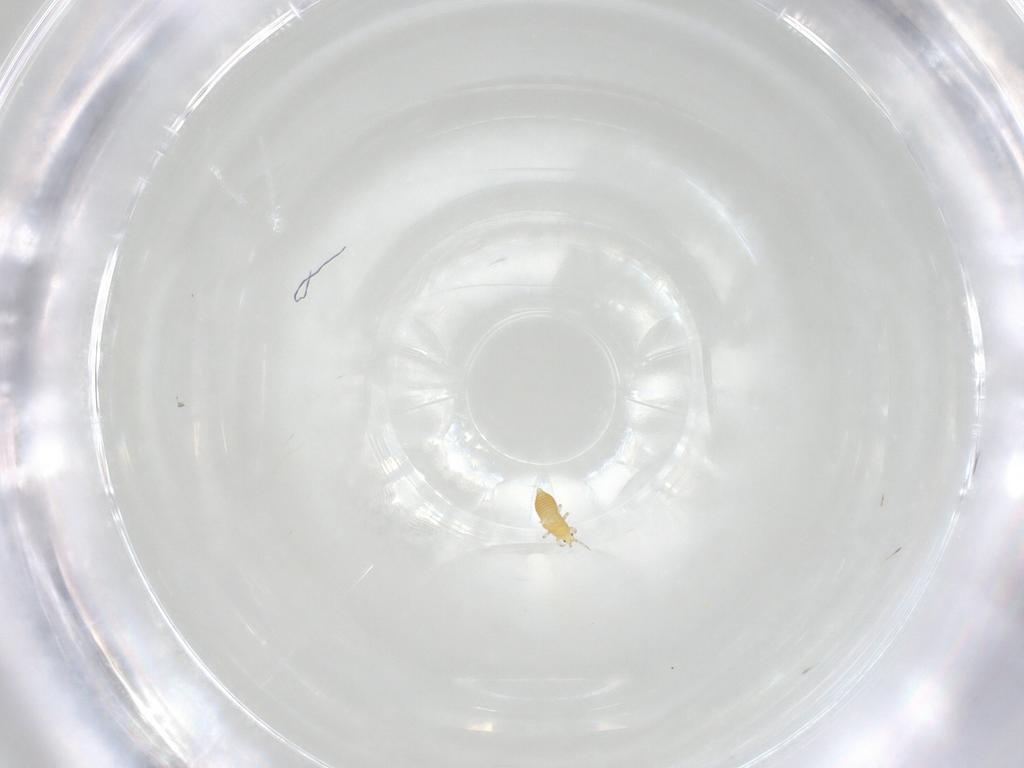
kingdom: Animalia
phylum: Arthropoda
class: Insecta
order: Thysanoptera
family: Thripidae
